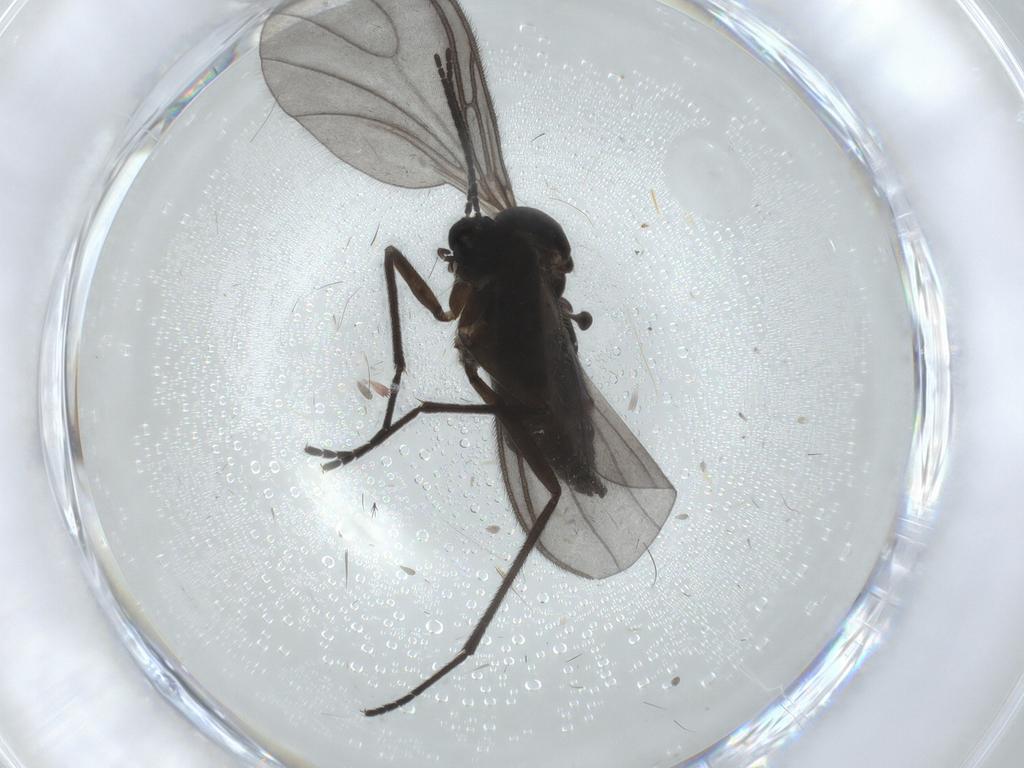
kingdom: Animalia
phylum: Arthropoda
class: Insecta
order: Diptera
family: Sciaridae
